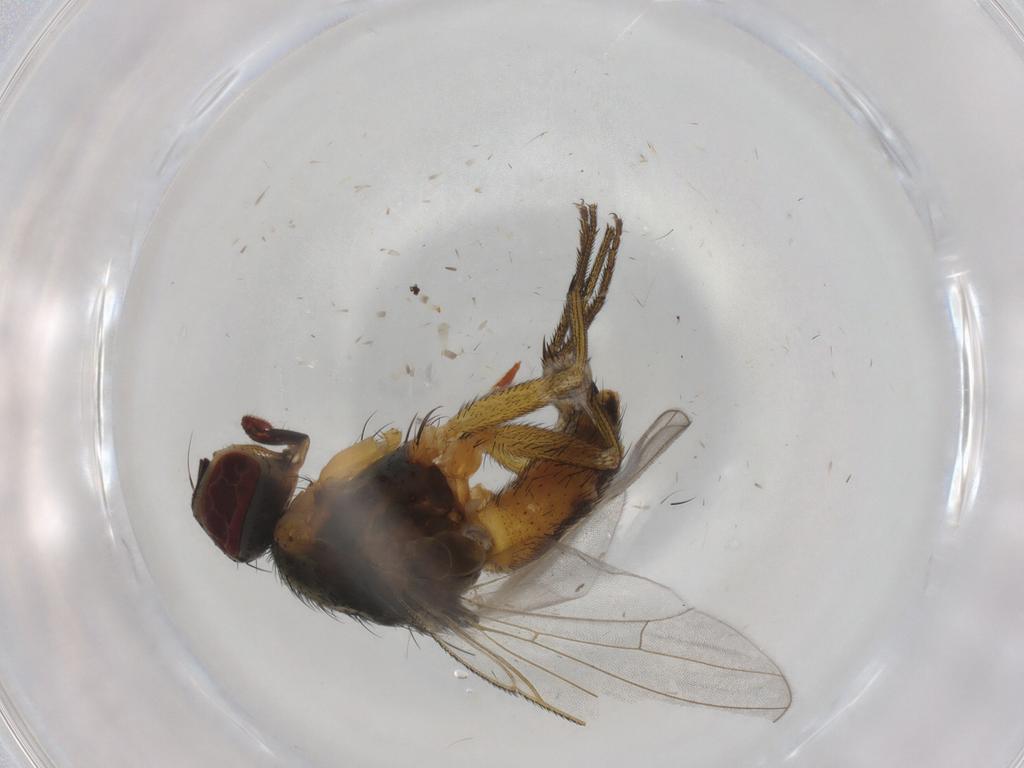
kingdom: Animalia
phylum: Arthropoda
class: Insecta
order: Diptera
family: Muscidae
